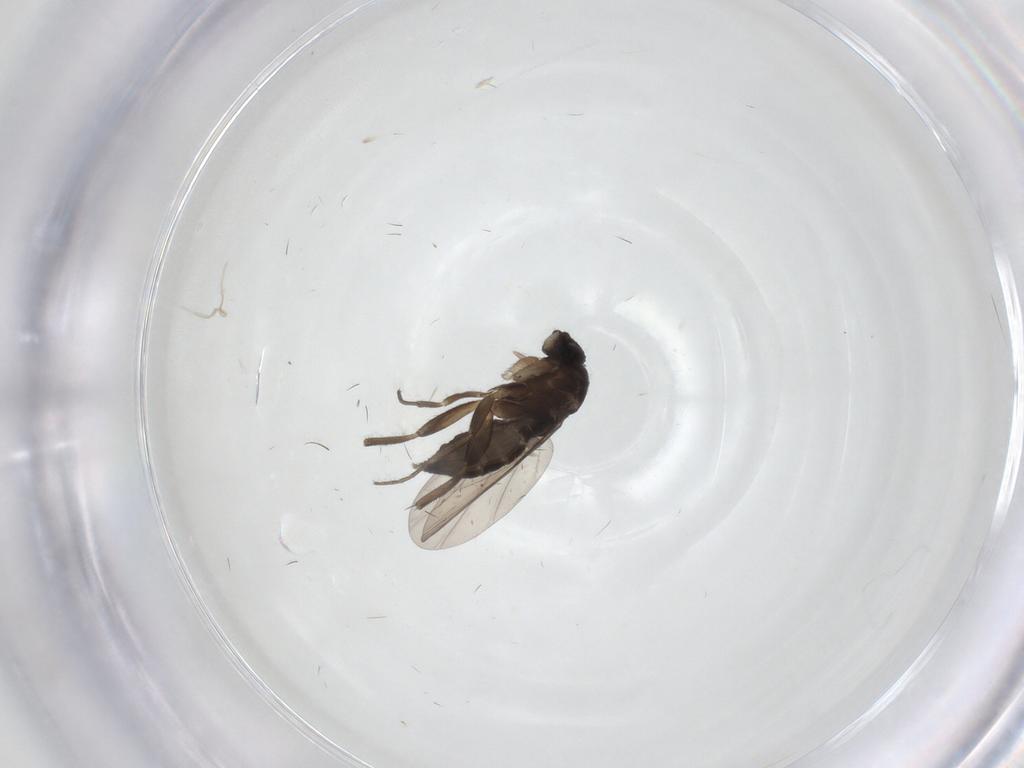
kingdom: Animalia
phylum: Arthropoda
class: Insecta
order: Diptera
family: Phoridae
